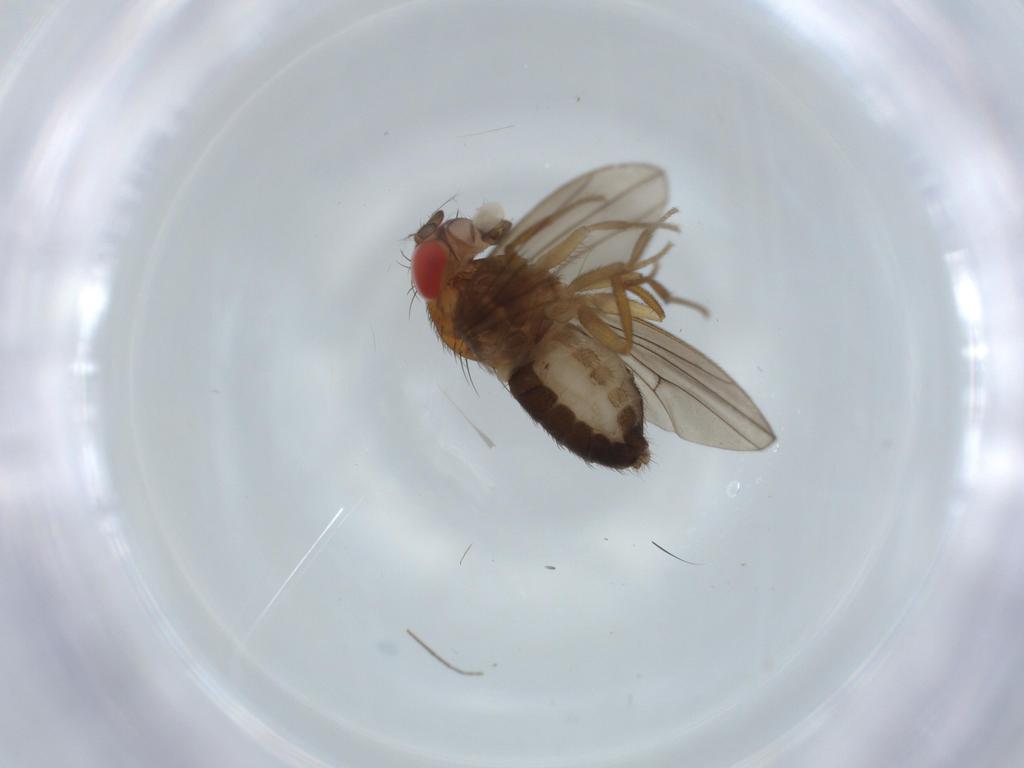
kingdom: Animalia
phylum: Arthropoda
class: Insecta
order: Diptera
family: Drosophilidae
